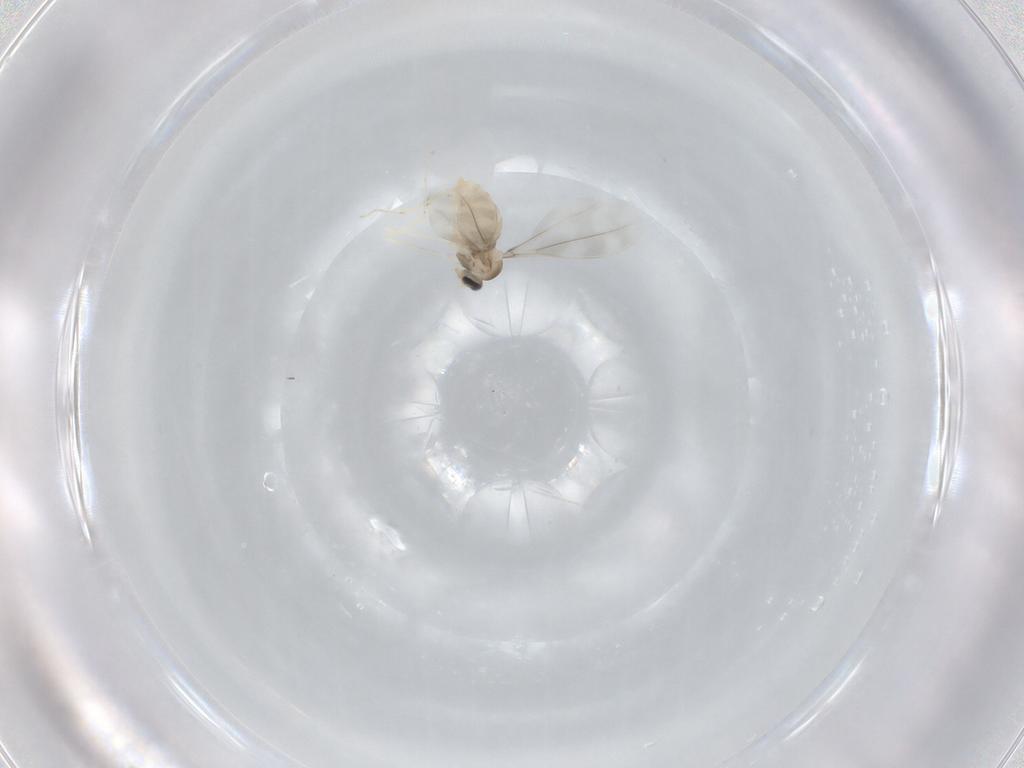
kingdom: Animalia
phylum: Arthropoda
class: Insecta
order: Diptera
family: Cecidomyiidae
